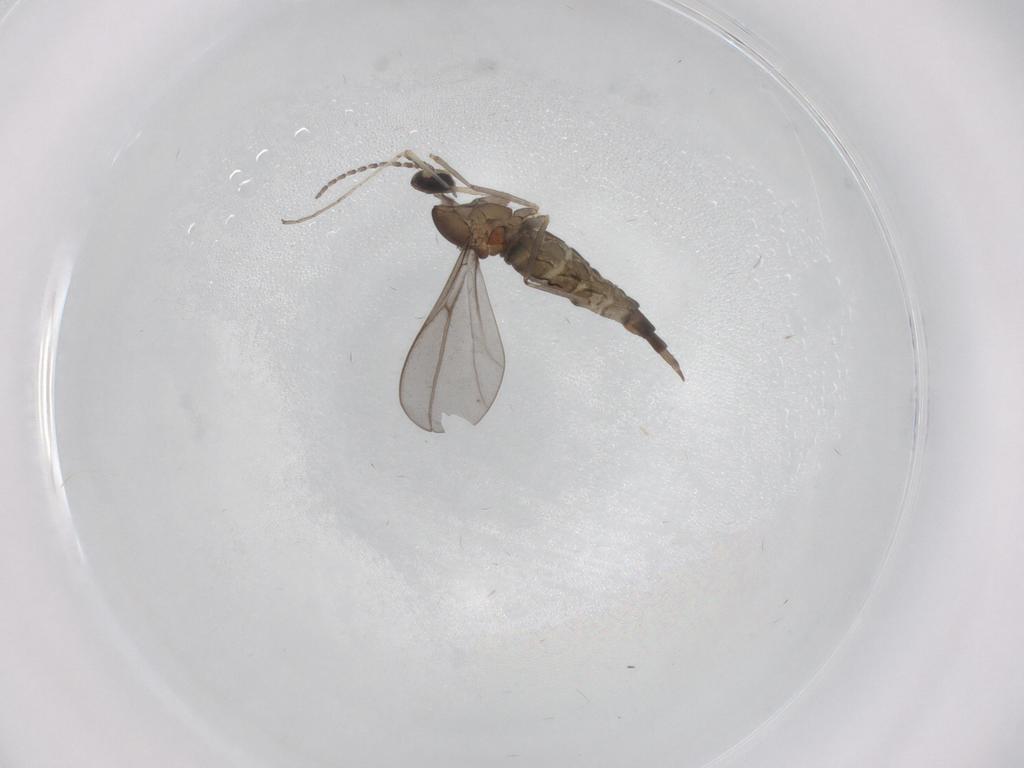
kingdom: Animalia
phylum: Arthropoda
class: Insecta
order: Diptera
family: Cecidomyiidae
